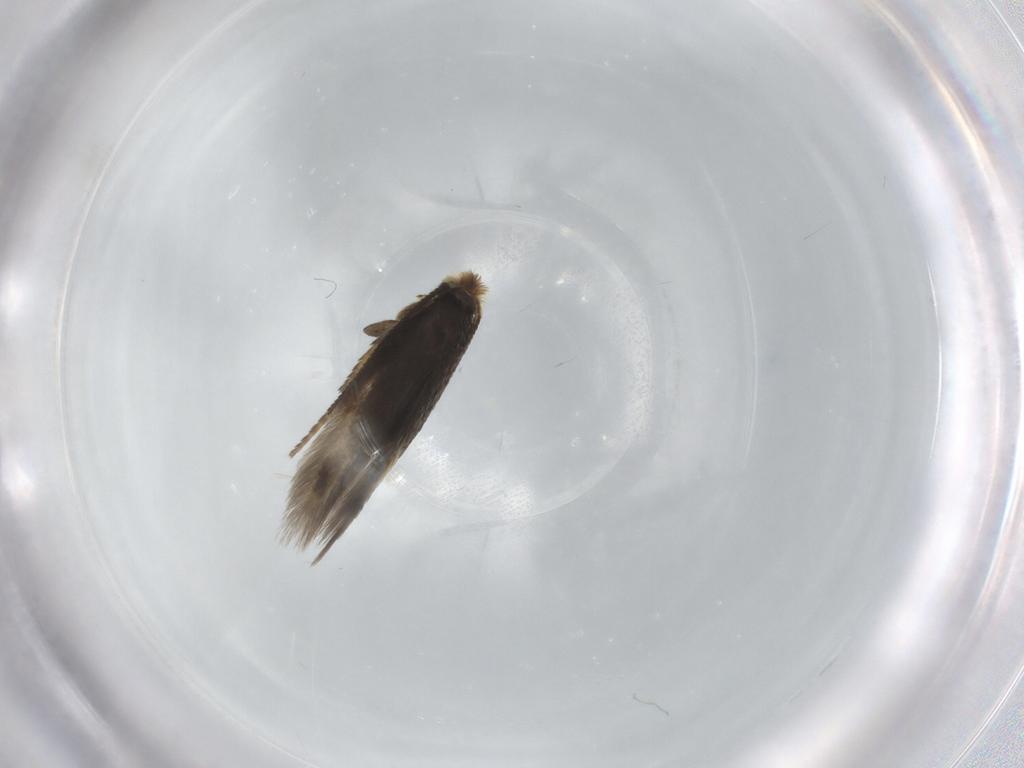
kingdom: Animalia
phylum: Arthropoda
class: Insecta
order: Lepidoptera
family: Nepticulidae
